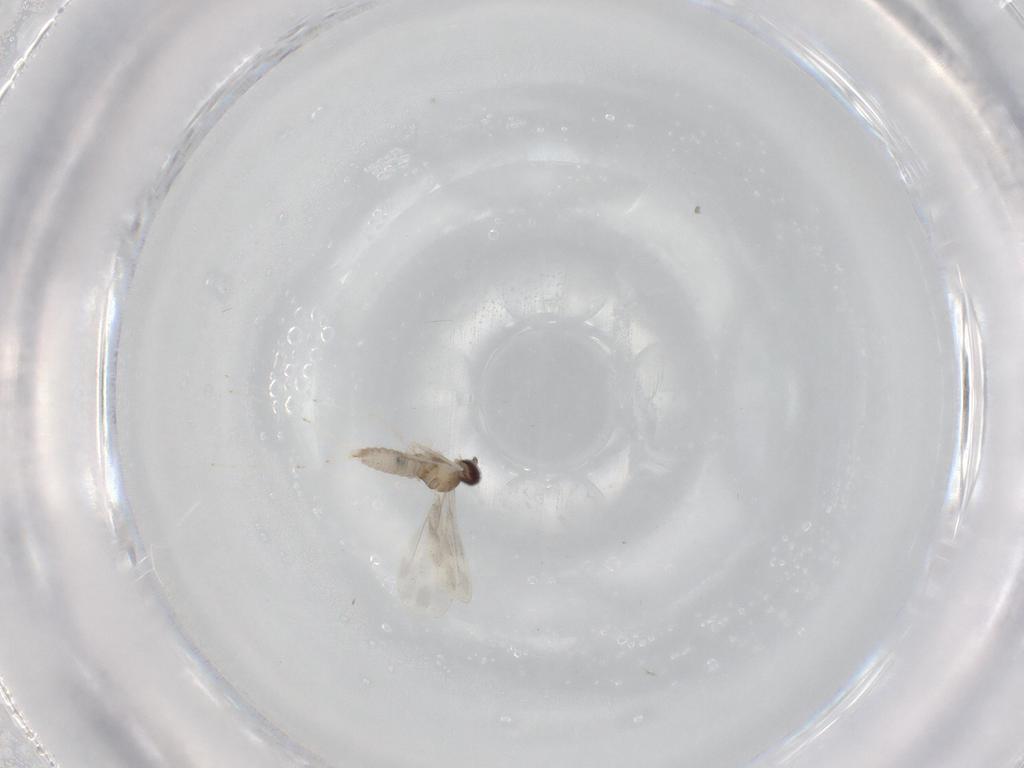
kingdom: Animalia
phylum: Arthropoda
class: Insecta
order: Diptera
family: Cecidomyiidae
